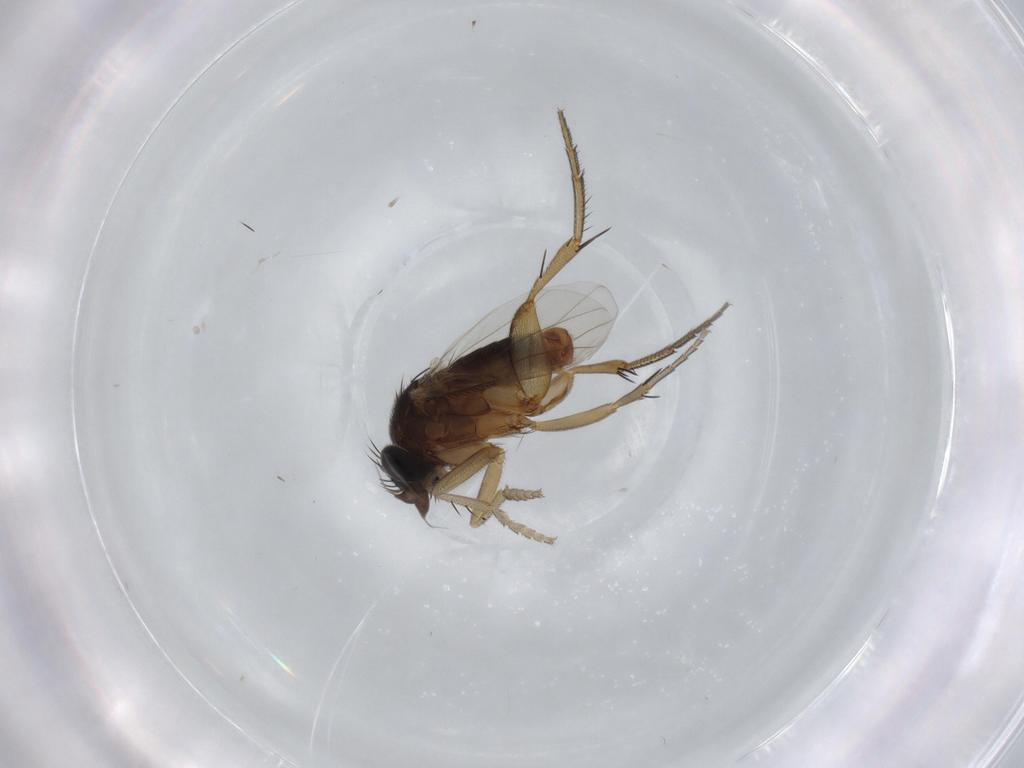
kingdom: Animalia
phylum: Arthropoda
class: Insecta
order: Diptera
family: Phoridae
